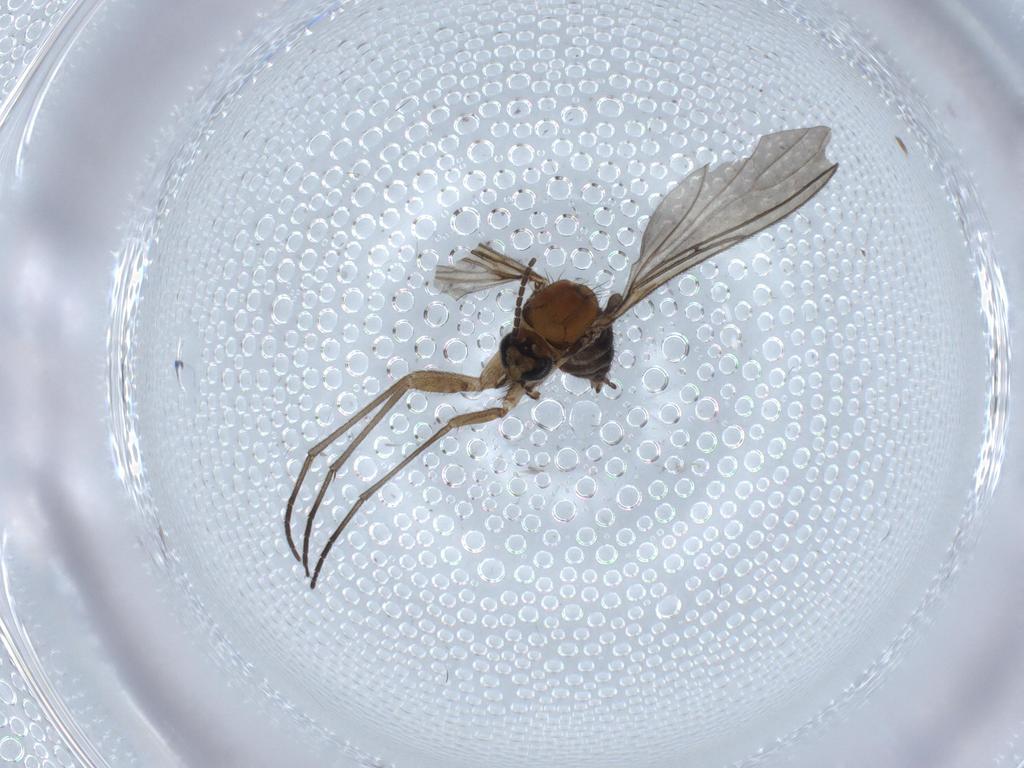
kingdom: Animalia
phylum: Arthropoda
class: Insecta
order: Diptera
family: Sciaridae
